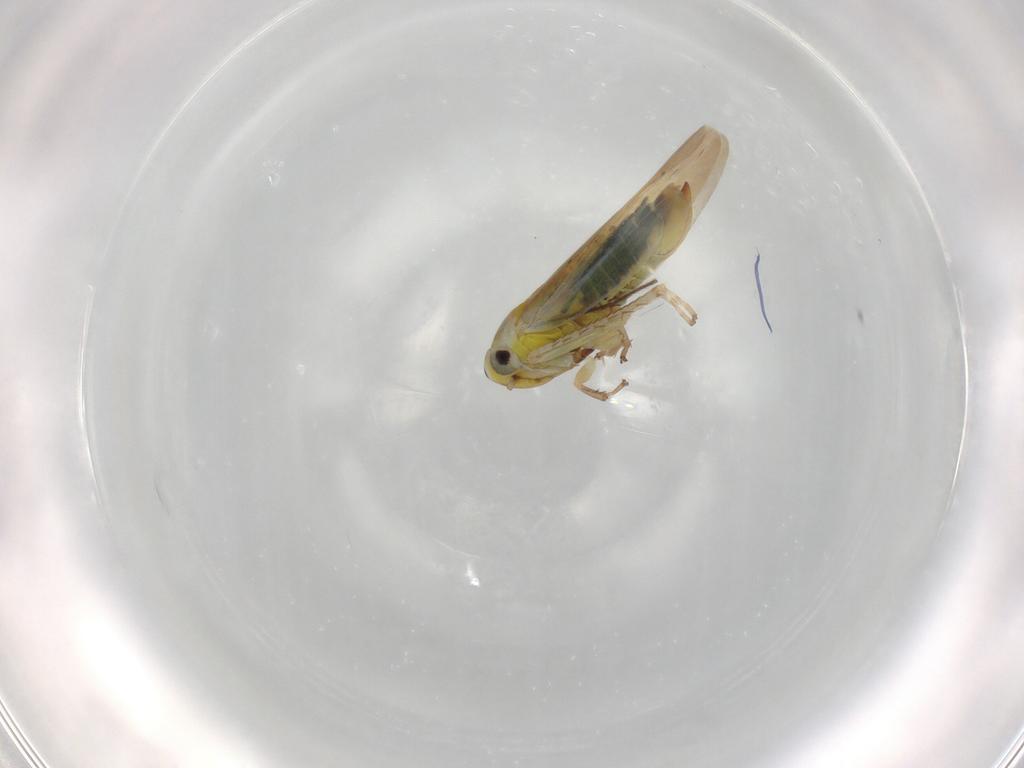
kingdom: Animalia
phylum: Arthropoda
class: Insecta
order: Hemiptera
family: Cicadellidae
